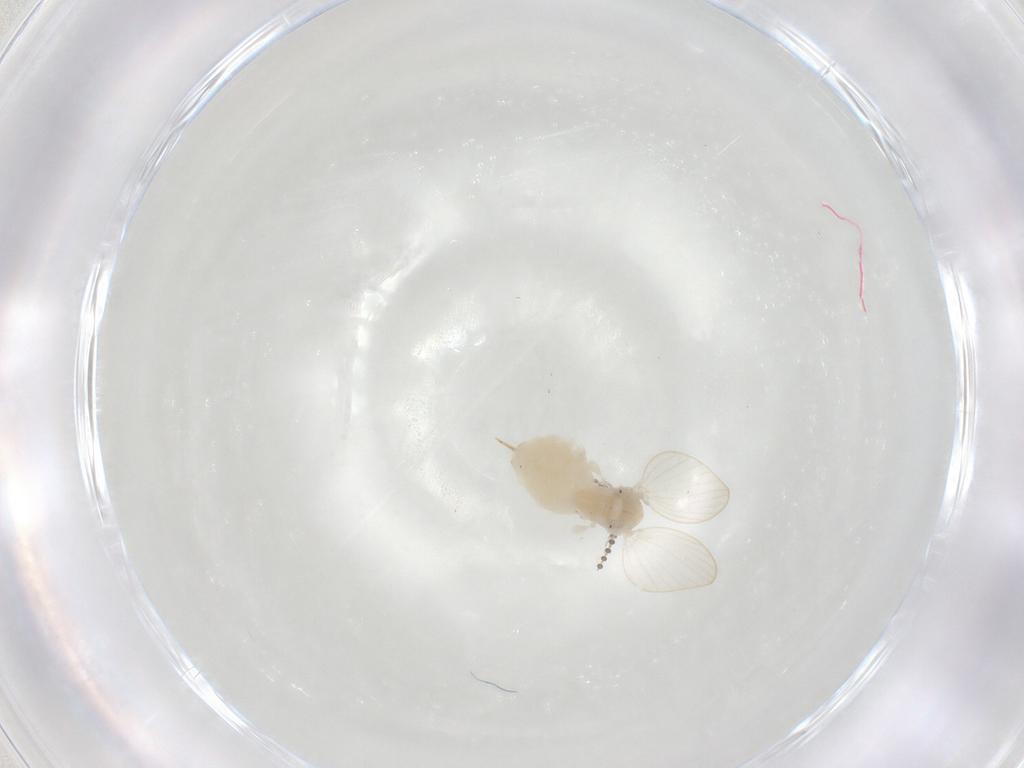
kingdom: Animalia
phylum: Arthropoda
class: Insecta
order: Diptera
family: Psychodidae
